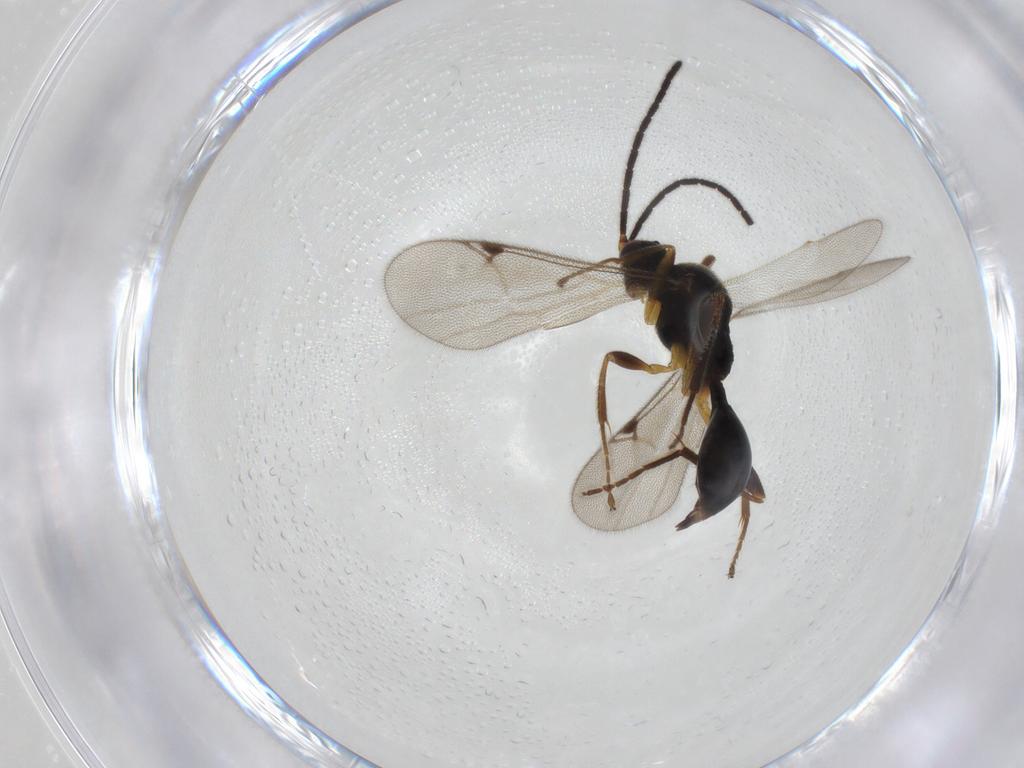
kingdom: Animalia
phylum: Arthropoda
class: Insecta
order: Hymenoptera
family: Proctotrupidae
